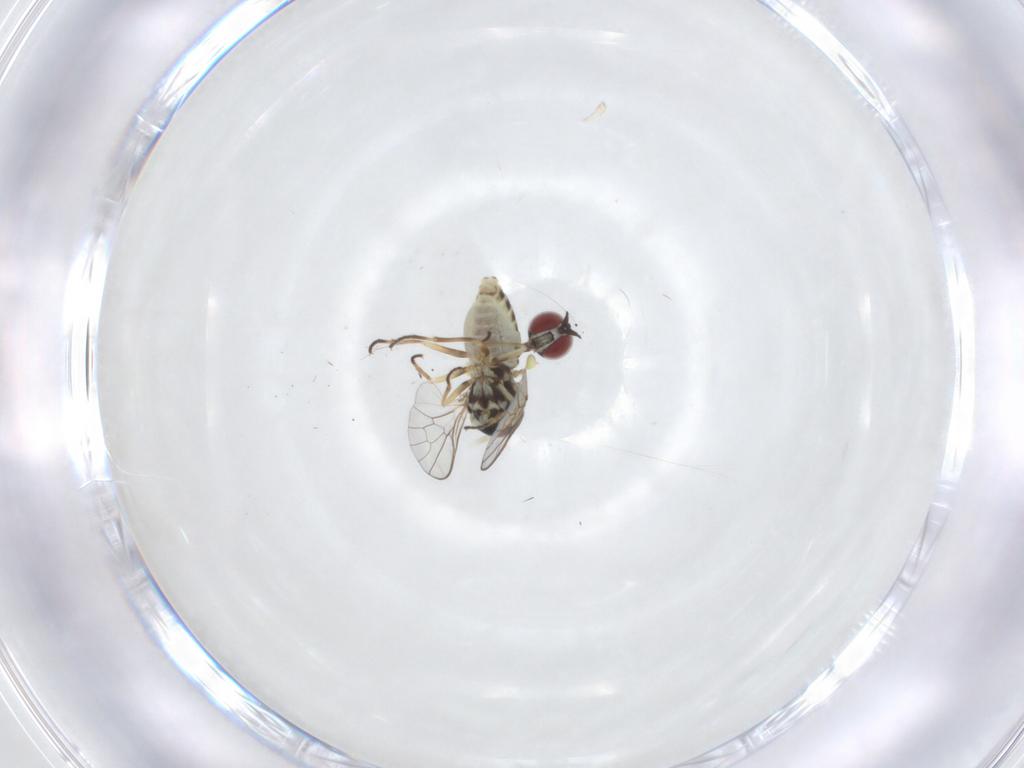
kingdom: Animalia
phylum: Arthropoda
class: Insecta
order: Diptera
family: Bombyliidae
